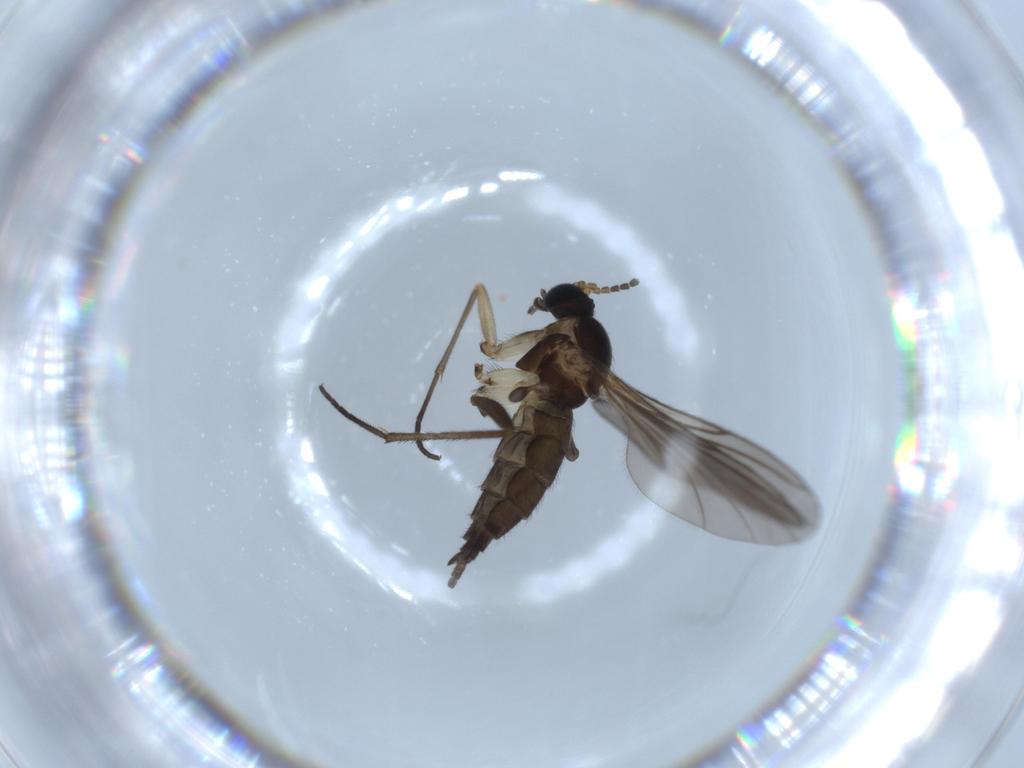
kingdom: Animalia
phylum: Arthropoda
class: Insecta
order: Diptera
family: Sciaridae
